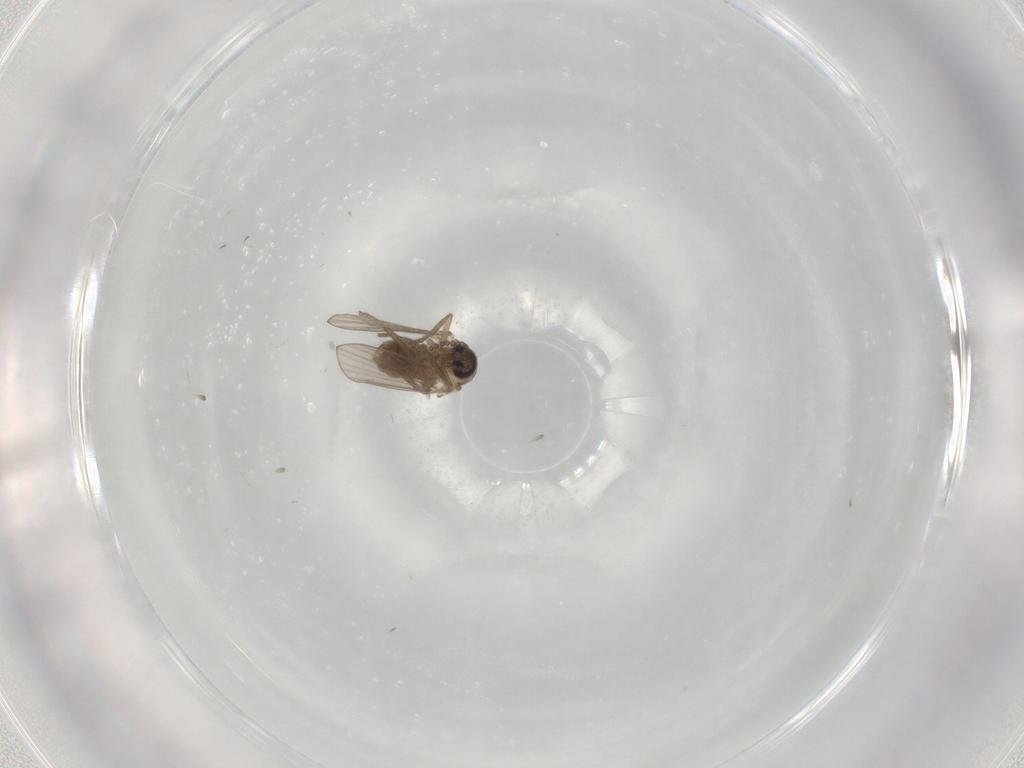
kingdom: Animalia
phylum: Arthropoda
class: Insecta
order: Diptera
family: Psychodidae
